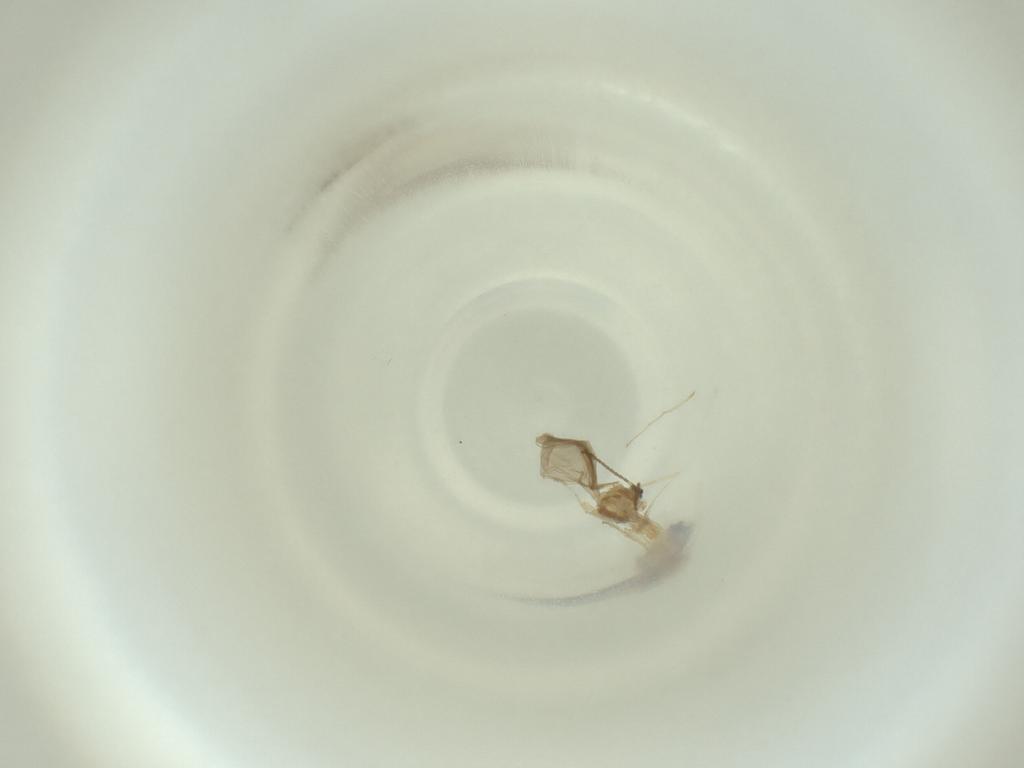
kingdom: Animalia
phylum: Arthropoda
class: Insecta
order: Diptera
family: Cecidomyiidae
